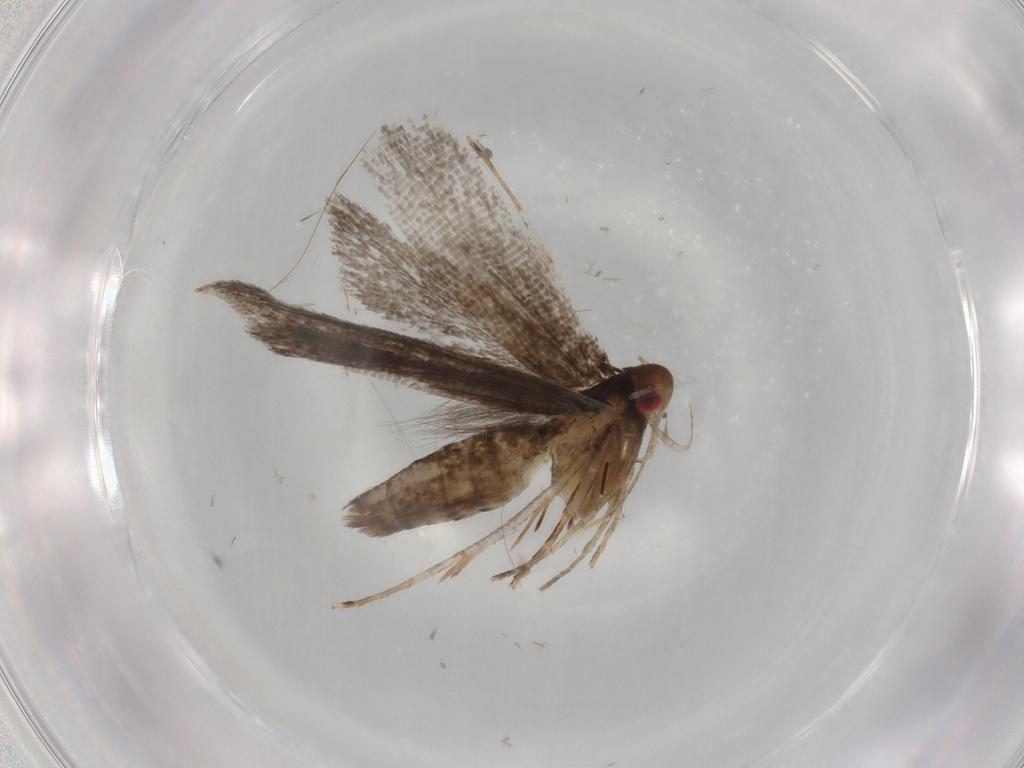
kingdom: Animalia
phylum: Arthropoda
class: Insecta
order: Lepidoptera
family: Gelechiidae
